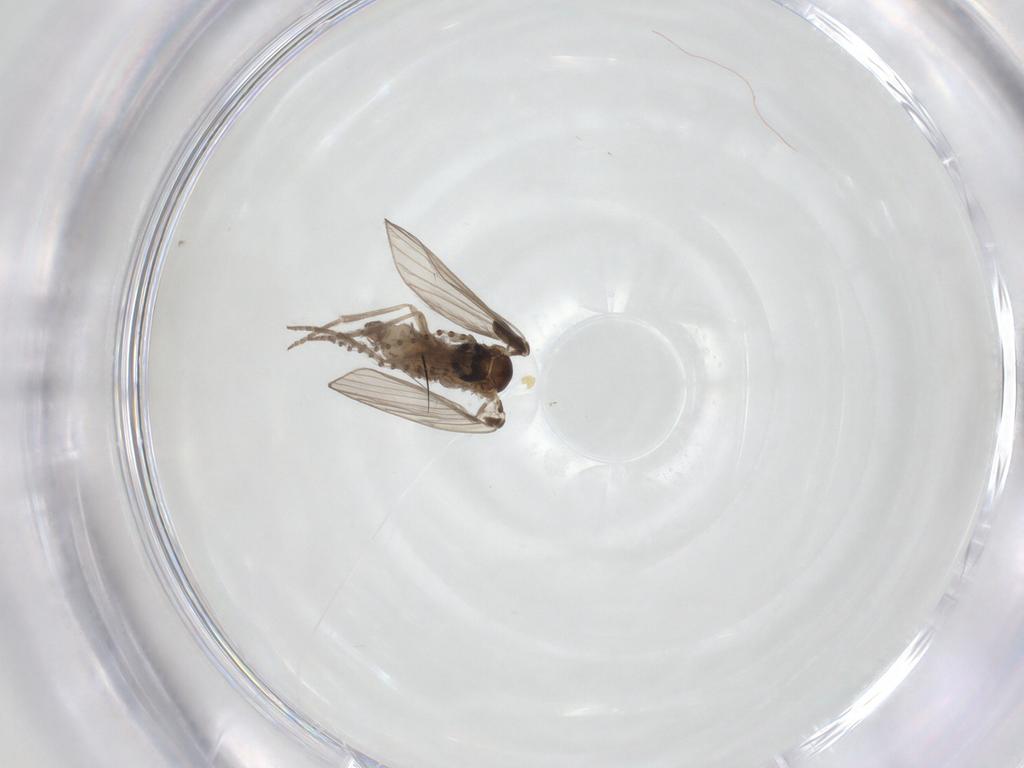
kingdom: Animalia
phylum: Arthropoda
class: Insecta
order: Diptera
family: Psychodidae
